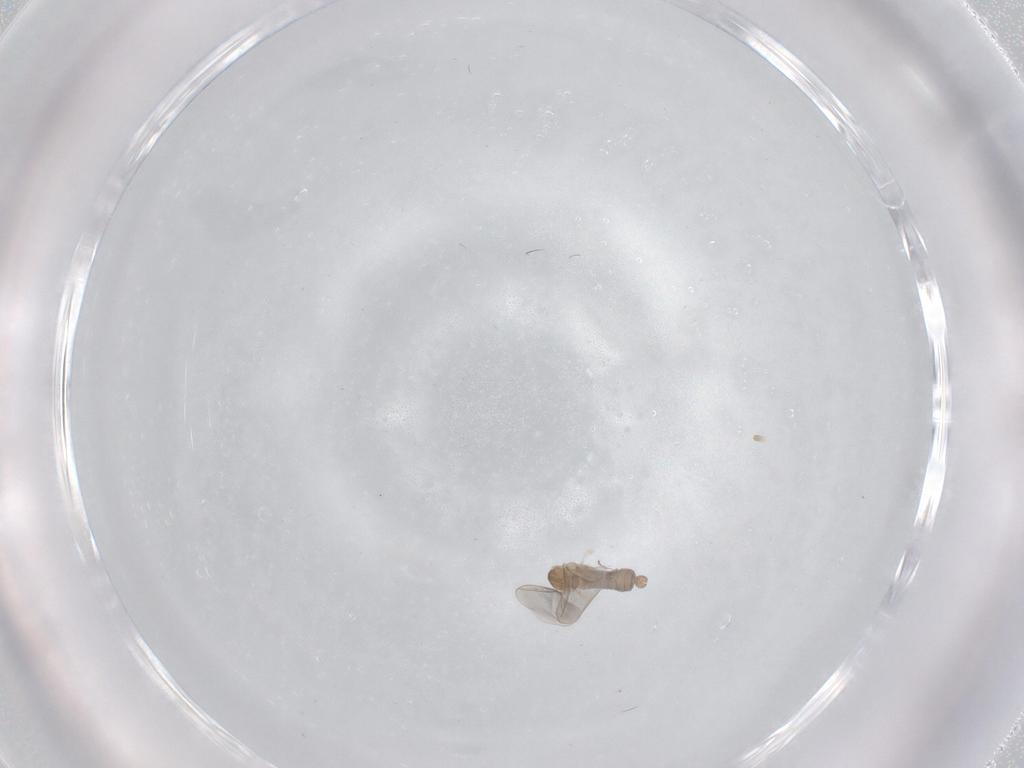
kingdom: Animalia
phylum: Arthropoda
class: Insecta
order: Diptera
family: Cecidomyiidae
